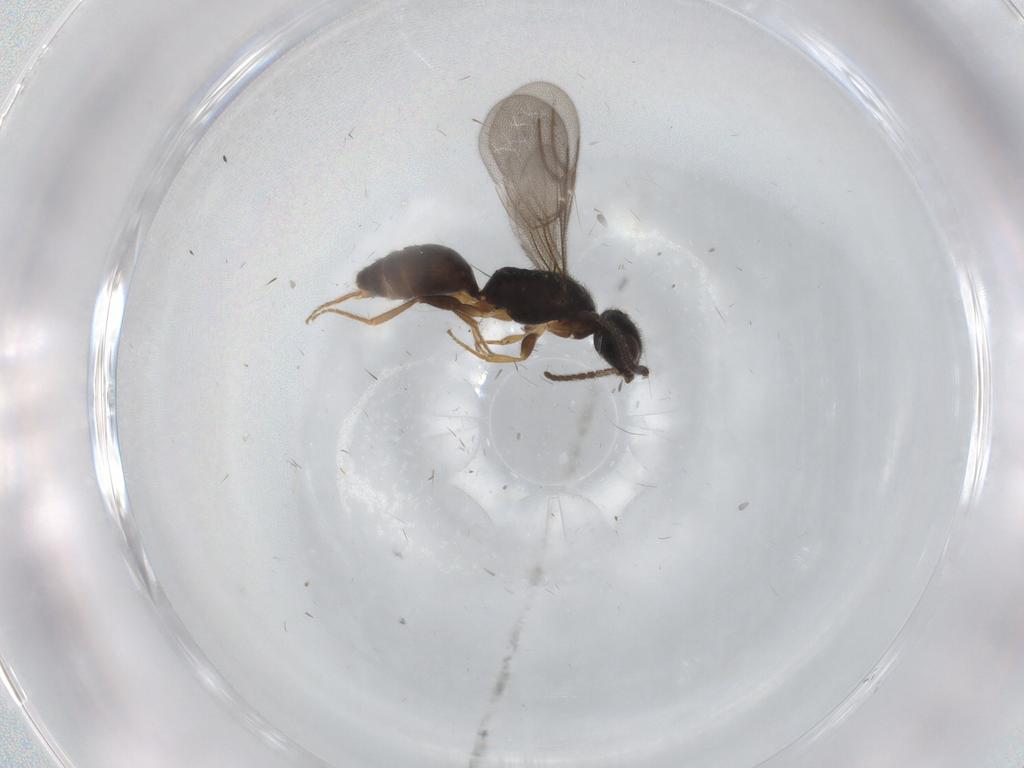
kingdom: Animalia
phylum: Arthropoda
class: Insecta
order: Hymenoptera
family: Bethylidae
